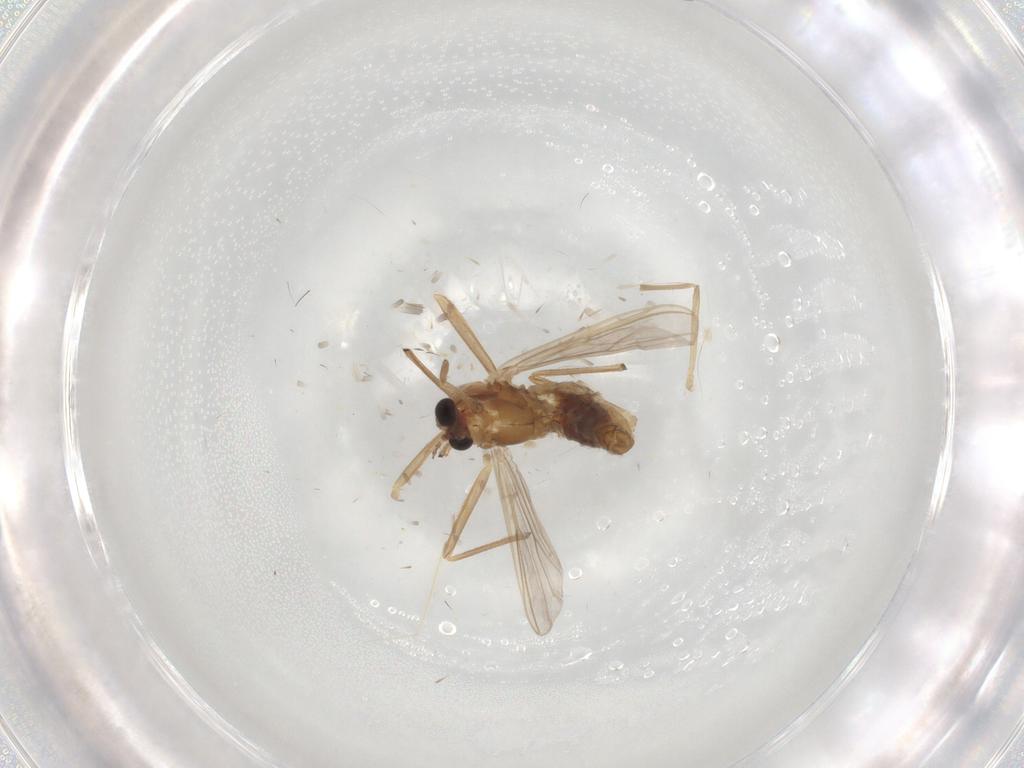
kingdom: Animalia
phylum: Arthropoda
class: Insecta
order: Diptera
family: Chironomidae
